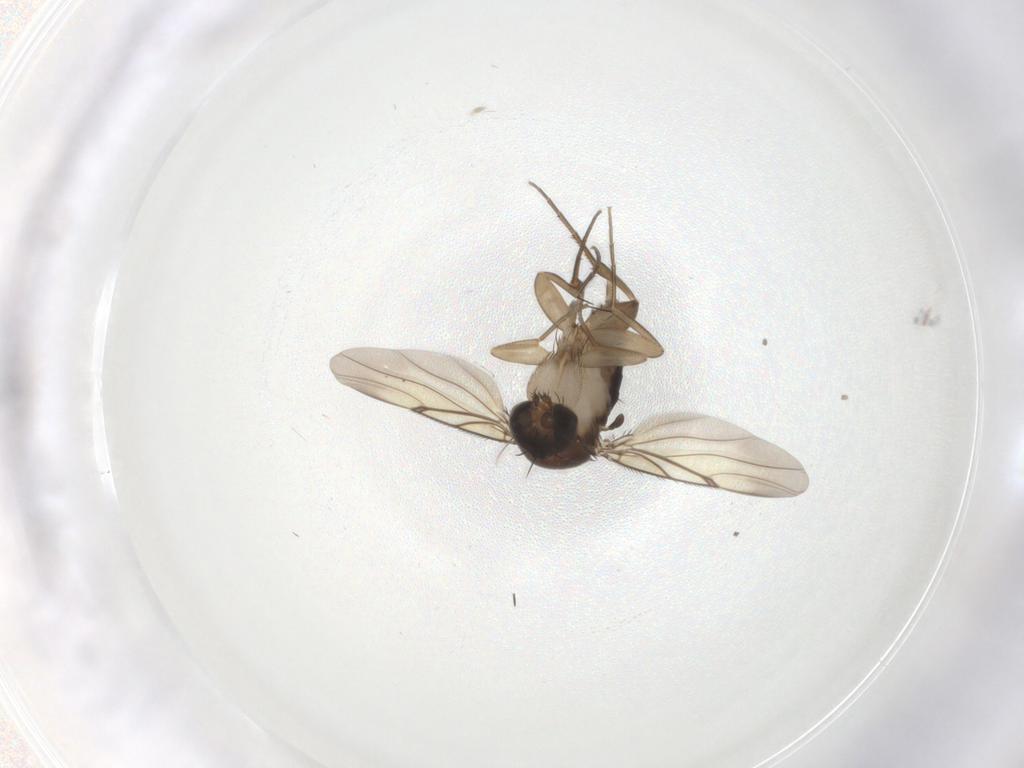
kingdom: Animalia
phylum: Arthropoda
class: Insecta
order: Diptera
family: Phoridae
